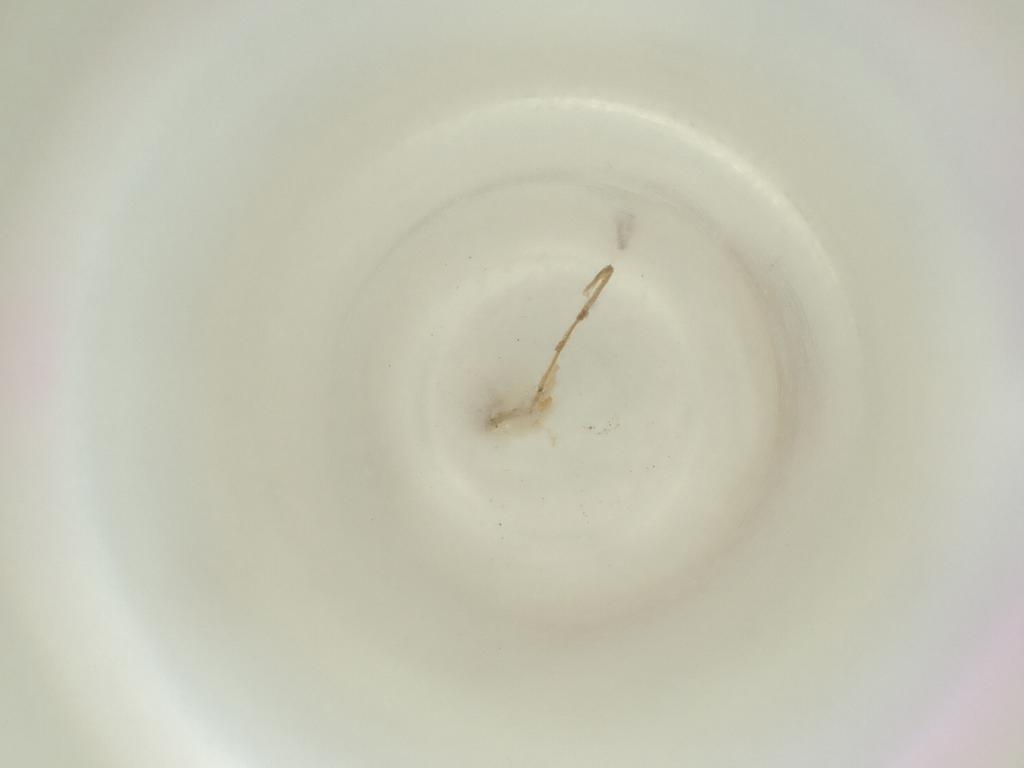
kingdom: Animalia
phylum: Arthropoda
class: Insecta
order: Diptera
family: Cecidomyiidae
